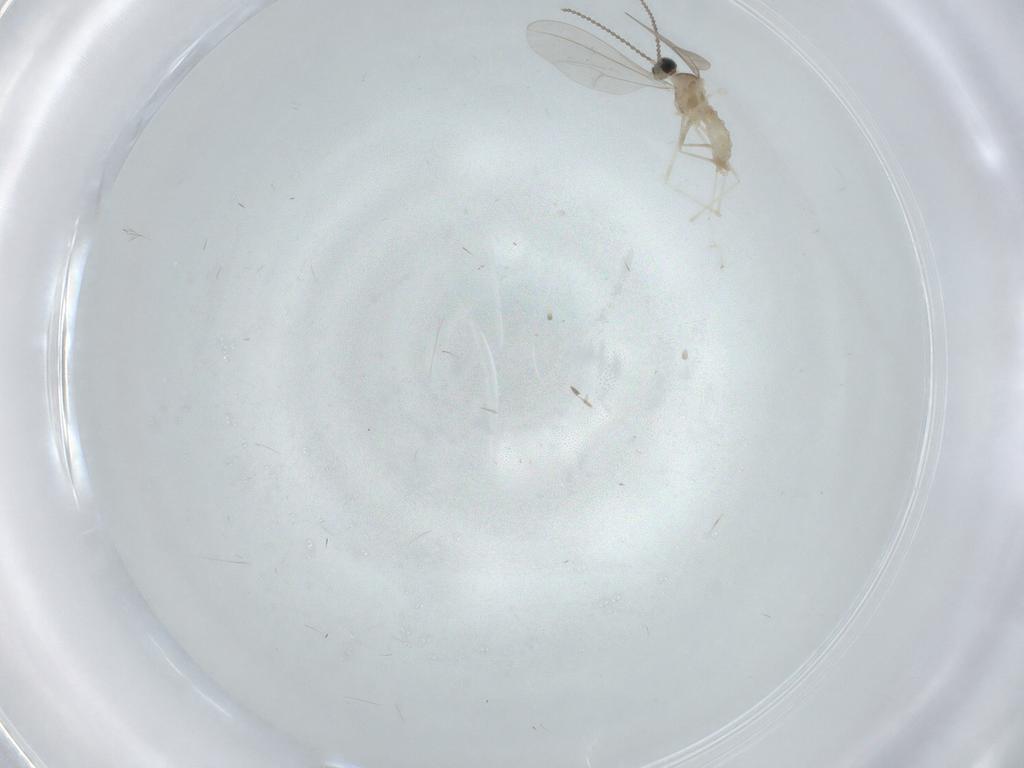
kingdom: Animalia
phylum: Arthropoda
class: Insecta
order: Diptera
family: Cecidomyiidae
